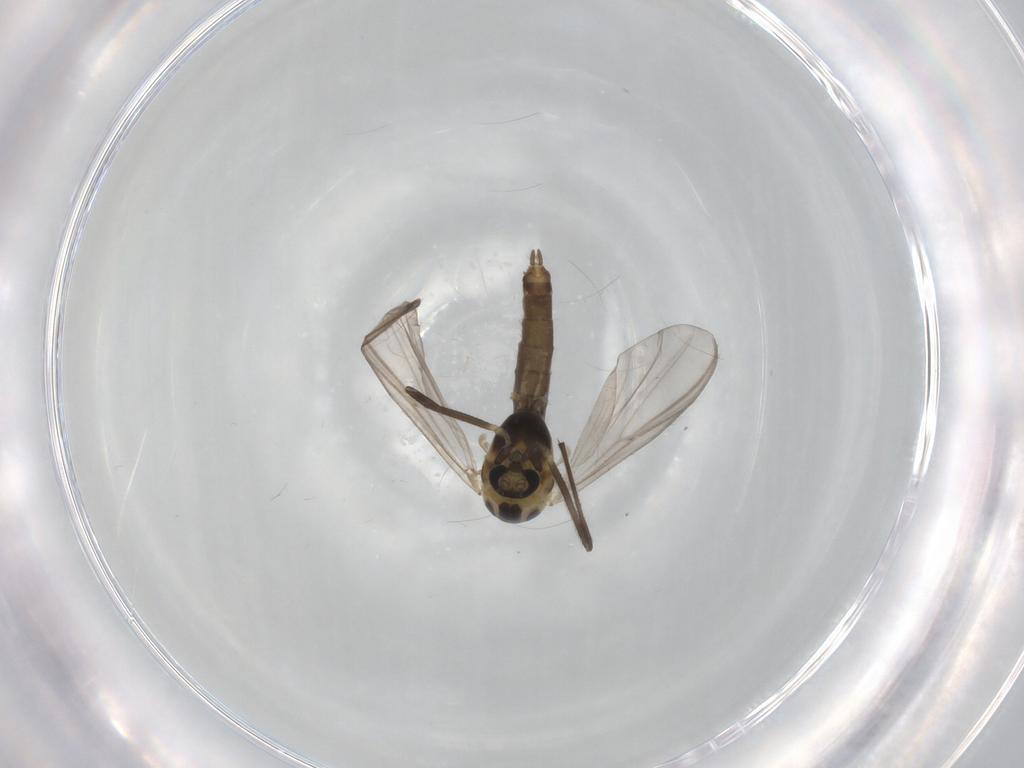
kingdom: Animalia
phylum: Arthropoda
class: Insecta
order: Diptera
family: Chironomidae
